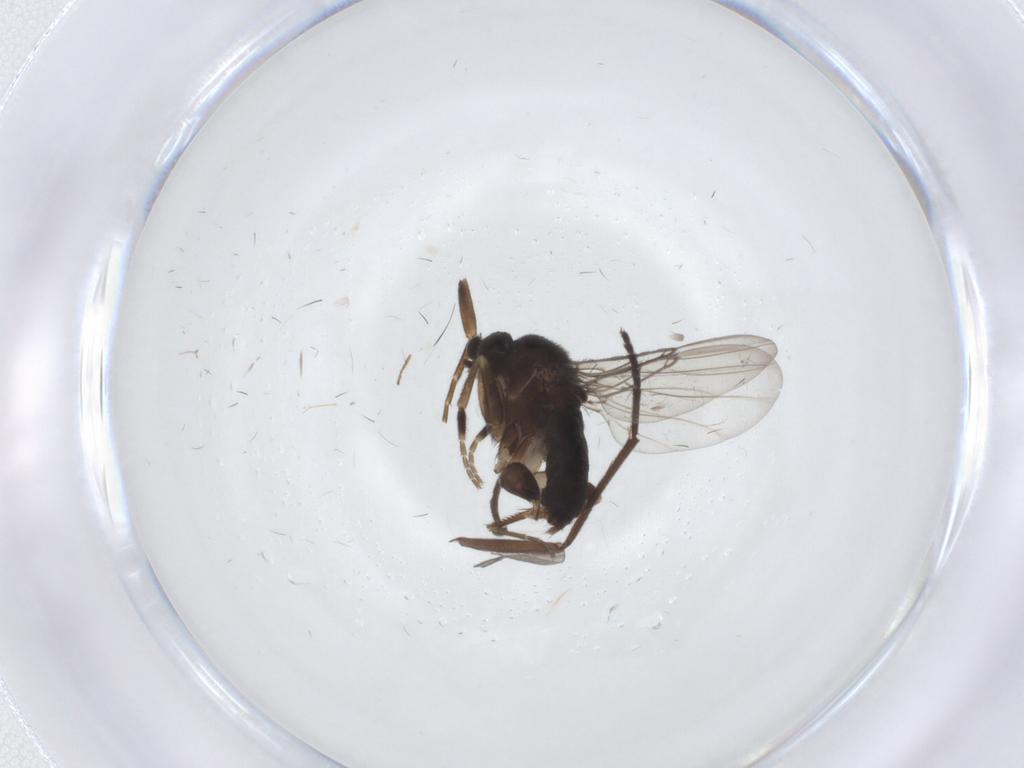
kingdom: Animalia
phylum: Arthropoda
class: Insecta
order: Diptera
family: Phoridae
